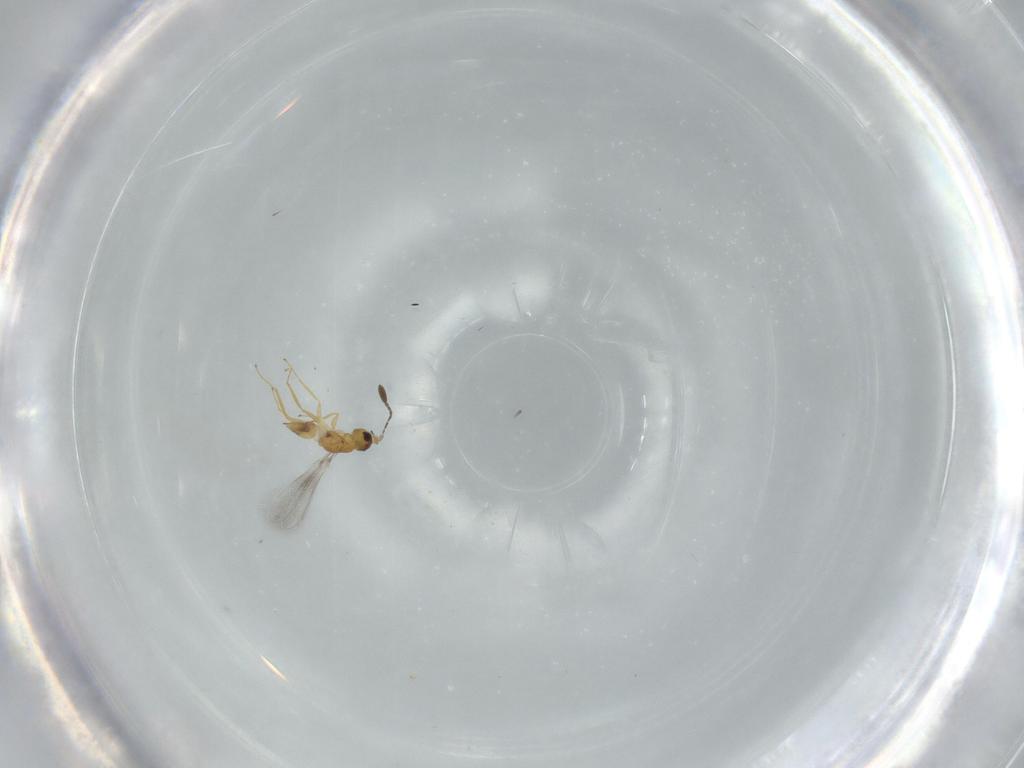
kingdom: Animalia
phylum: Arthropoda
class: Insecta
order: Hymenoptera
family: Mymaridae
